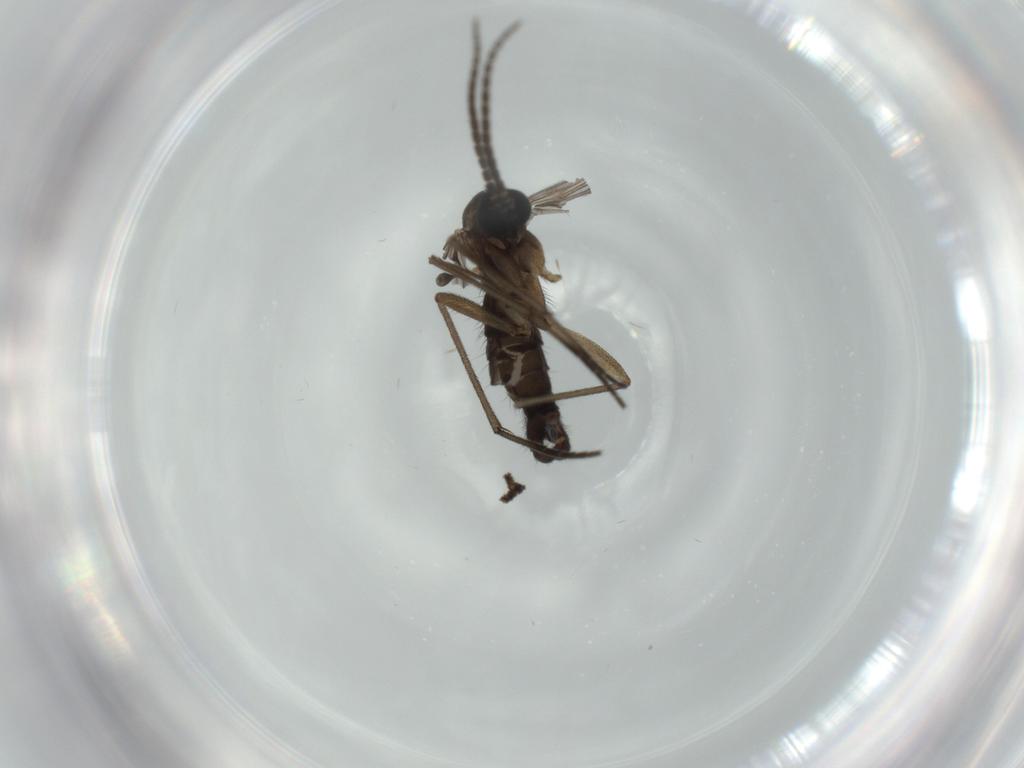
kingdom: Animalia
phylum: Arthropoda
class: Insecta
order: Diptera
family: Sciaridae
